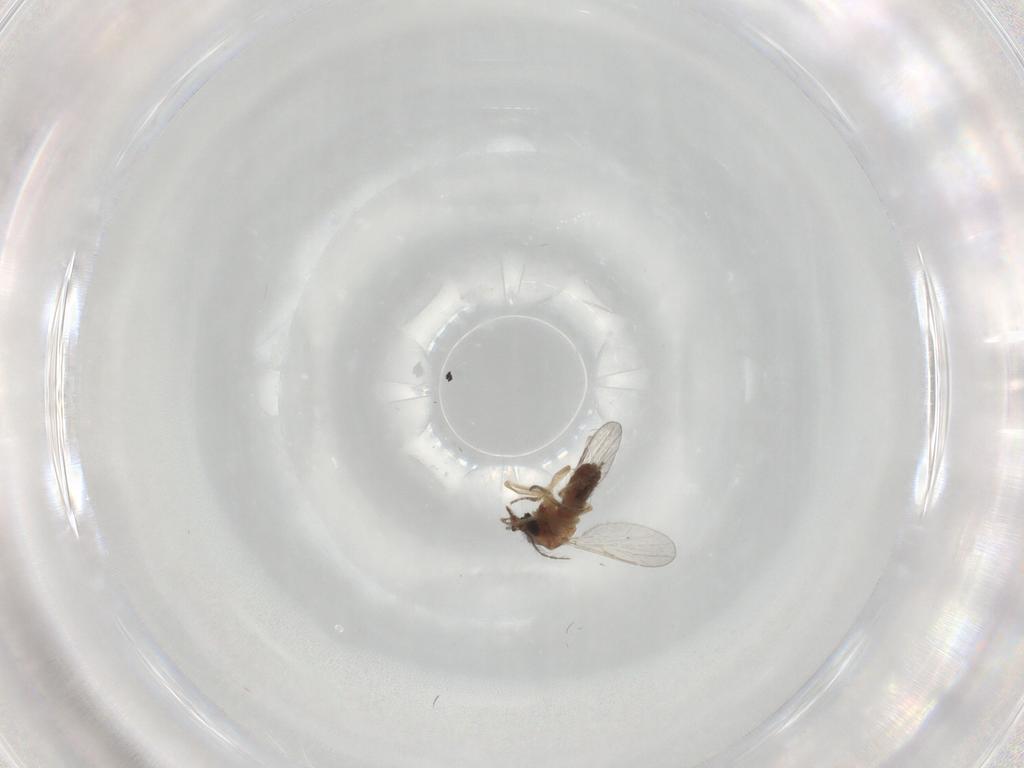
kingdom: Animalia
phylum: Arthropoda
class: Insecta
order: Diptera
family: Ceratopogonidae
